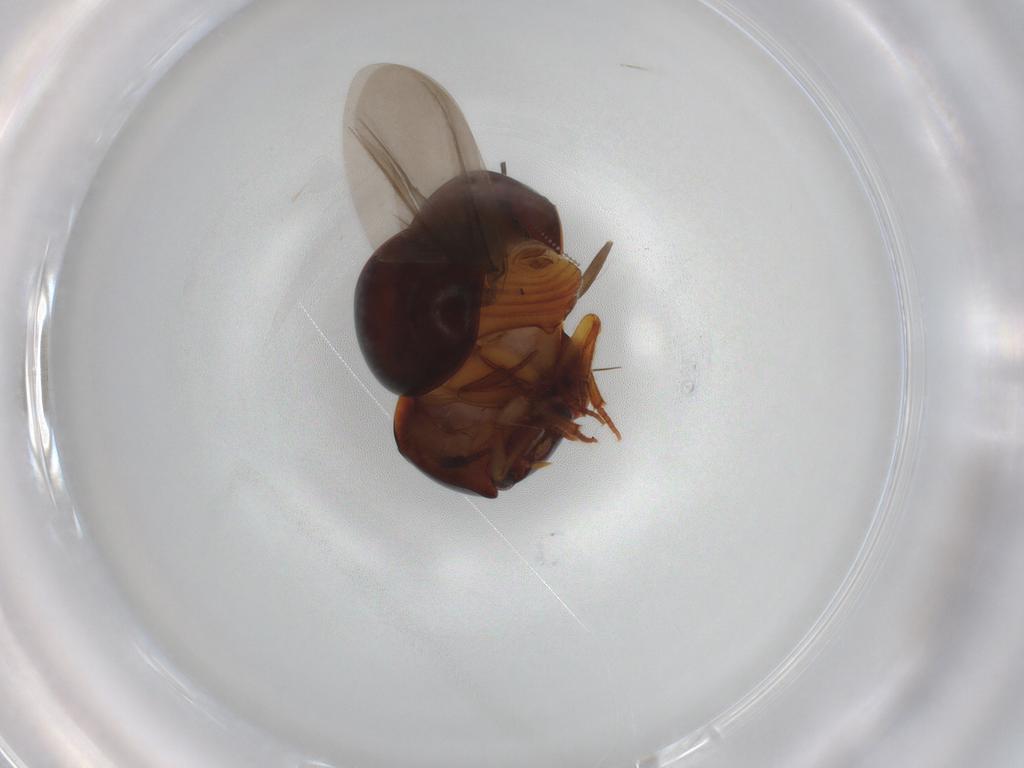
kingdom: Animalia
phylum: Arthropoda
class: Insecta
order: Coleoptera
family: Leiodidae
